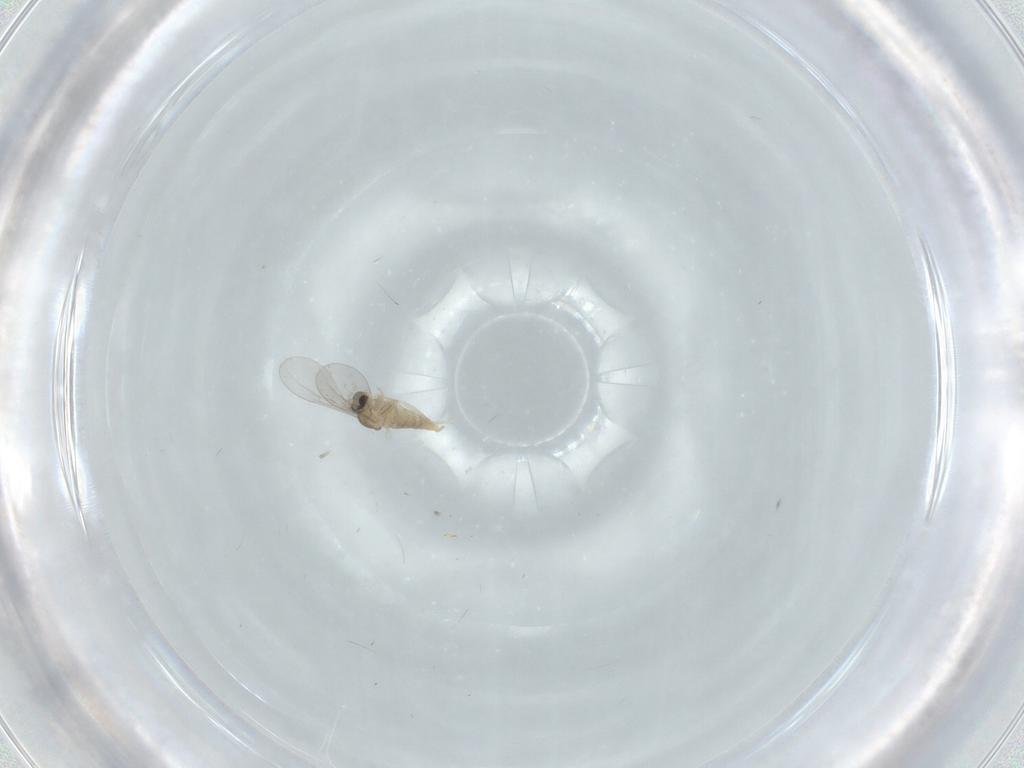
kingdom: Animalia
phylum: Arthropoda
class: Insecta
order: Diptera
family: Cecidomyiidae
